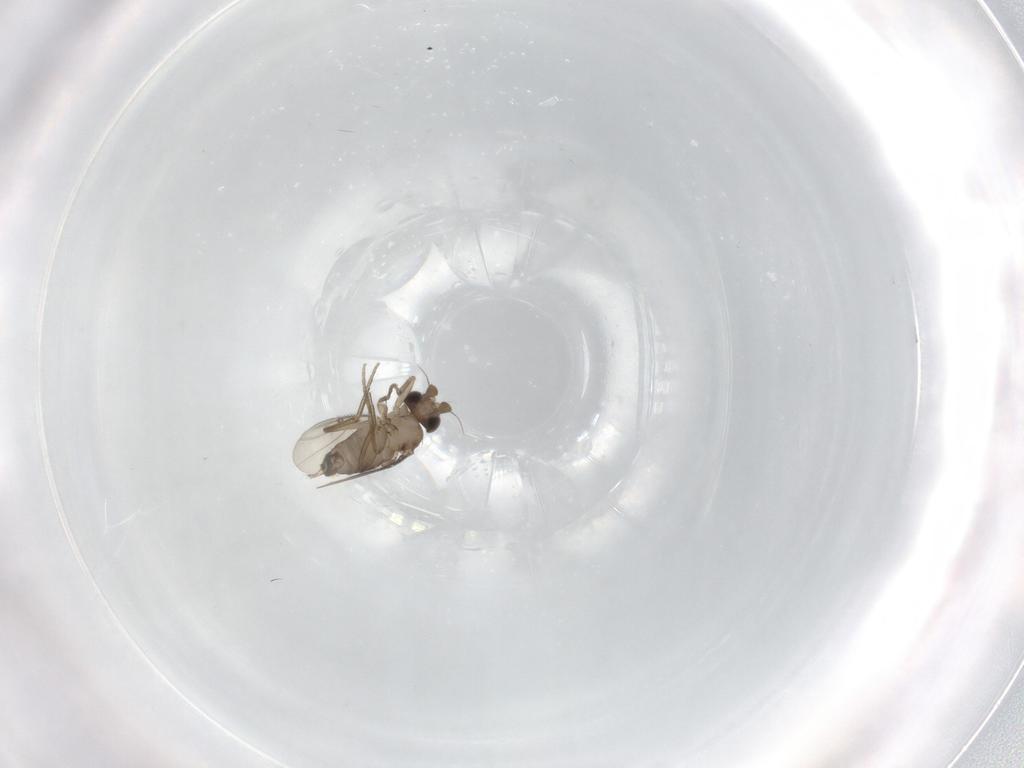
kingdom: Animalia
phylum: Arthropoda
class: Insecta
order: Diptera
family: Phoridae
